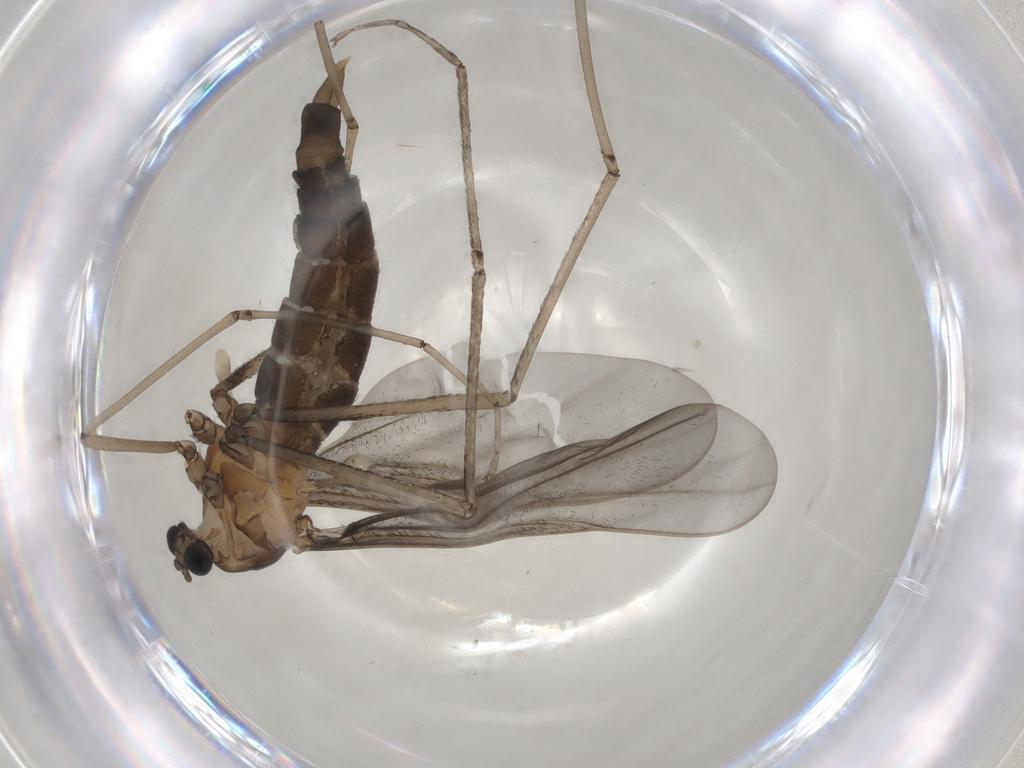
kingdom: Animalia
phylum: Arthropoda
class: Insecta
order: Diptera
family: Cecidomyiidae
